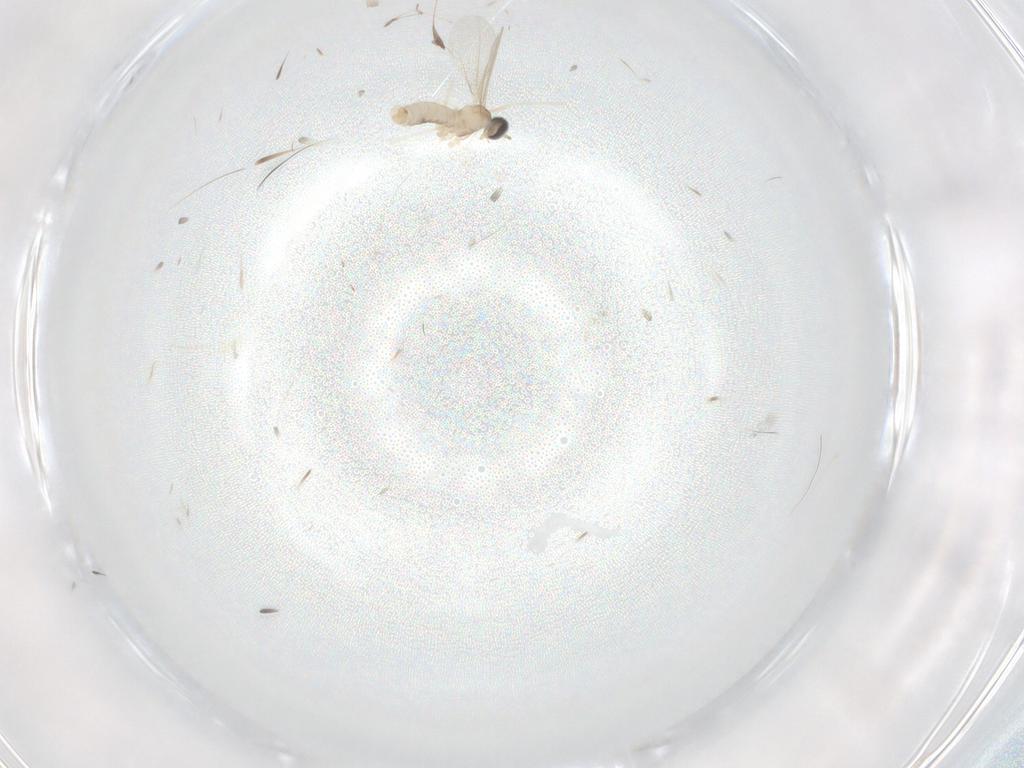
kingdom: Animalia
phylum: Arthropoda
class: Insecta
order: Diptera
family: Cecidomyiidae
